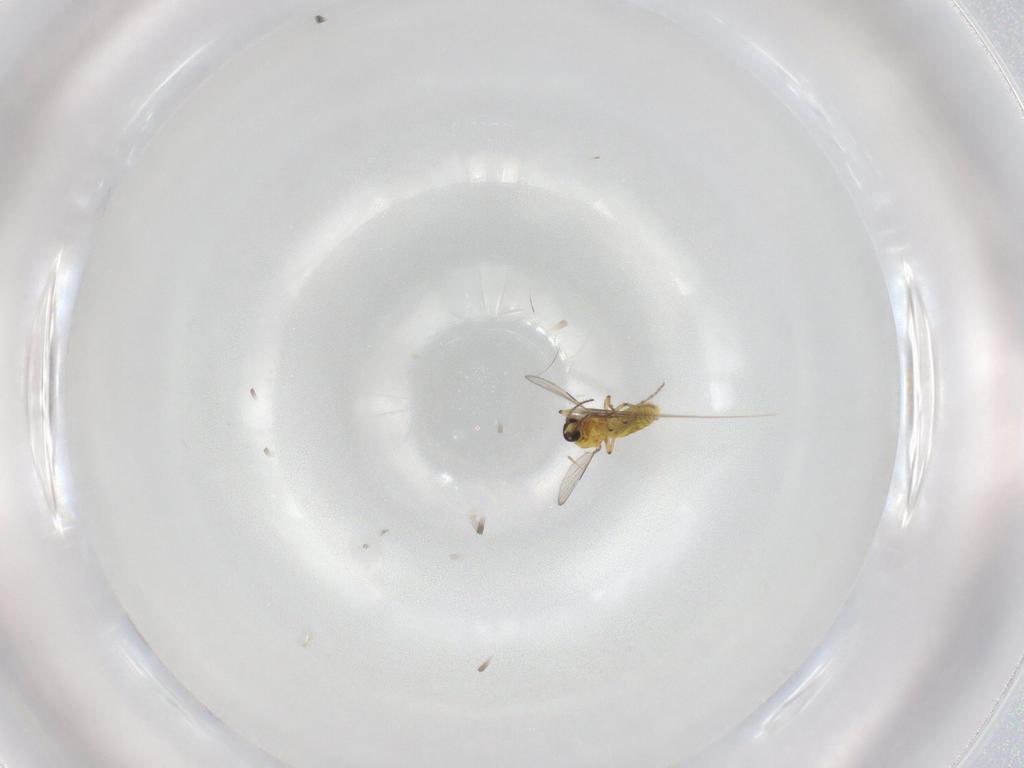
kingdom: Animalia
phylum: Arthropoda
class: Insecta
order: Diptera
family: Ceratopogonidae
